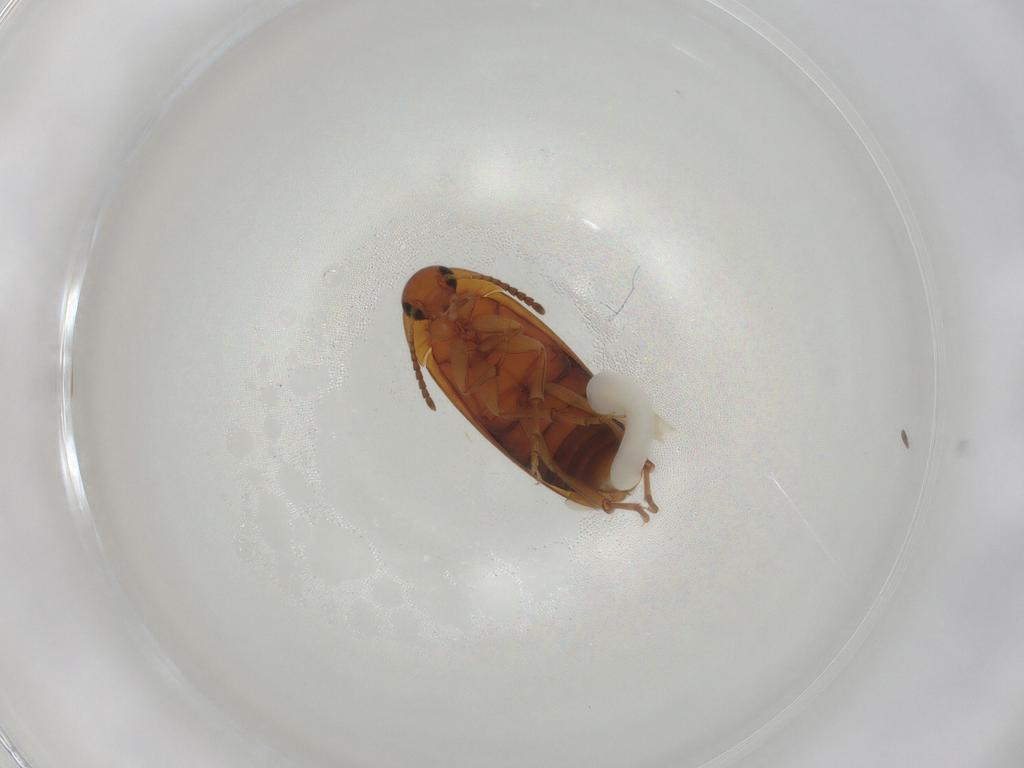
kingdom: Animalia
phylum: Arthropoda
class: Insecta
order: Coleoptera
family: Scraptiidae
